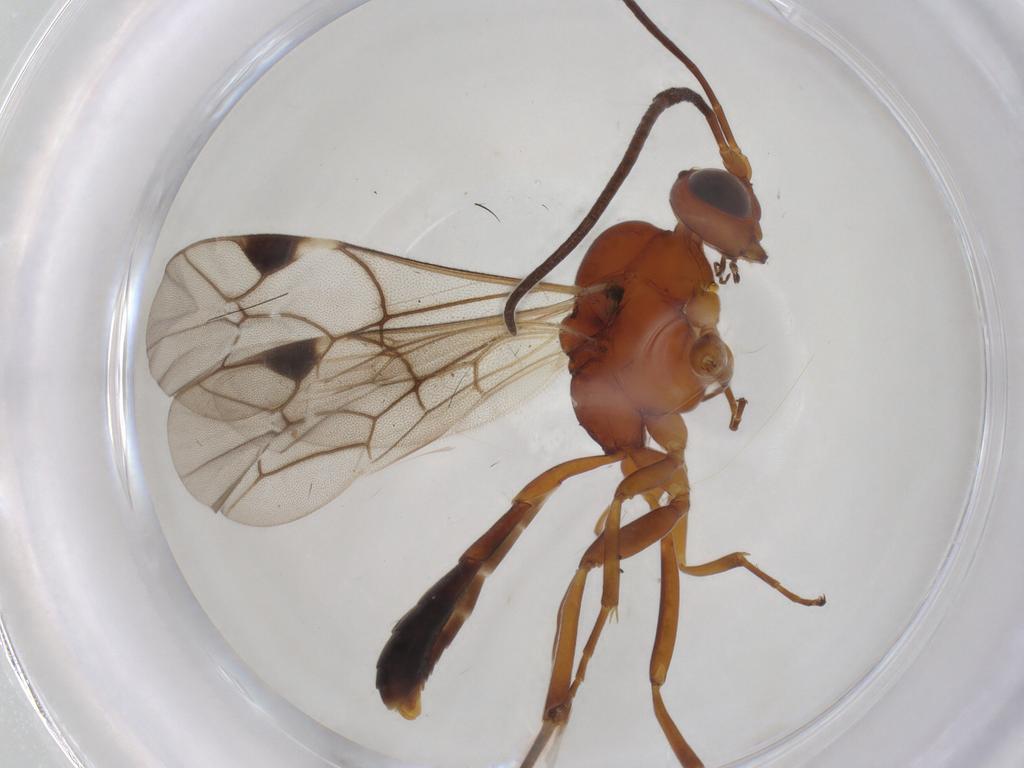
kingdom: Animalia
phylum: Arthropoda
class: Insecta
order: Hymenoptera
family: Ichneumonidae
